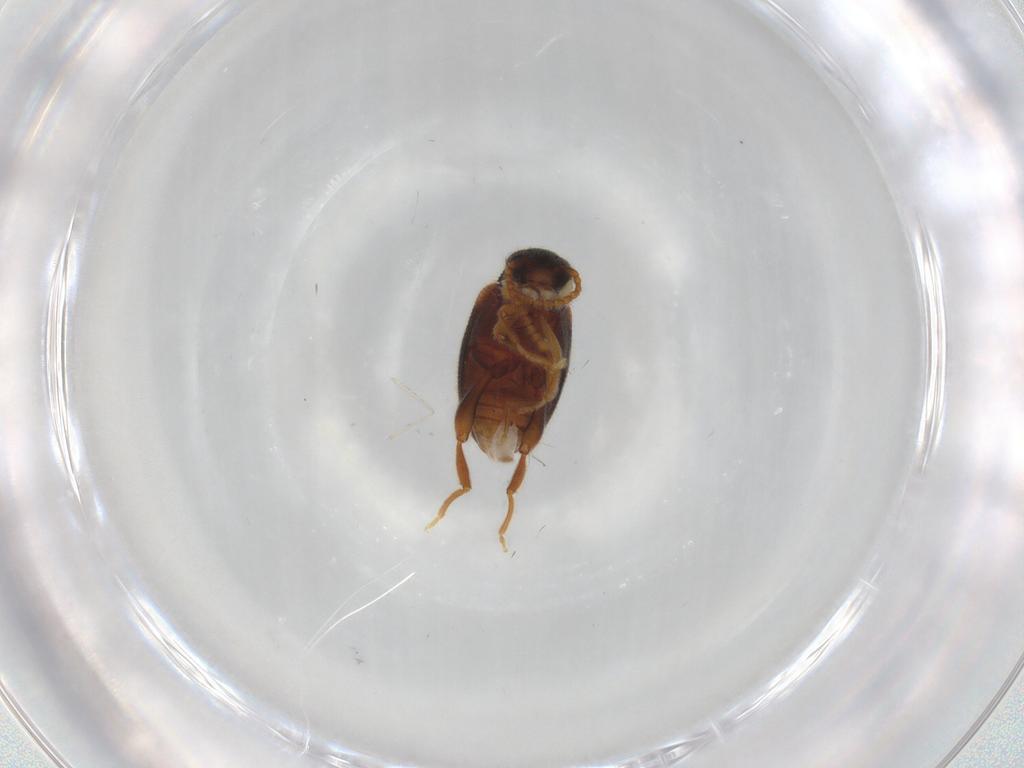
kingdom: Animalia
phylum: Arthropoda
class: Insecta
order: Coleoptera
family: Aderidae
